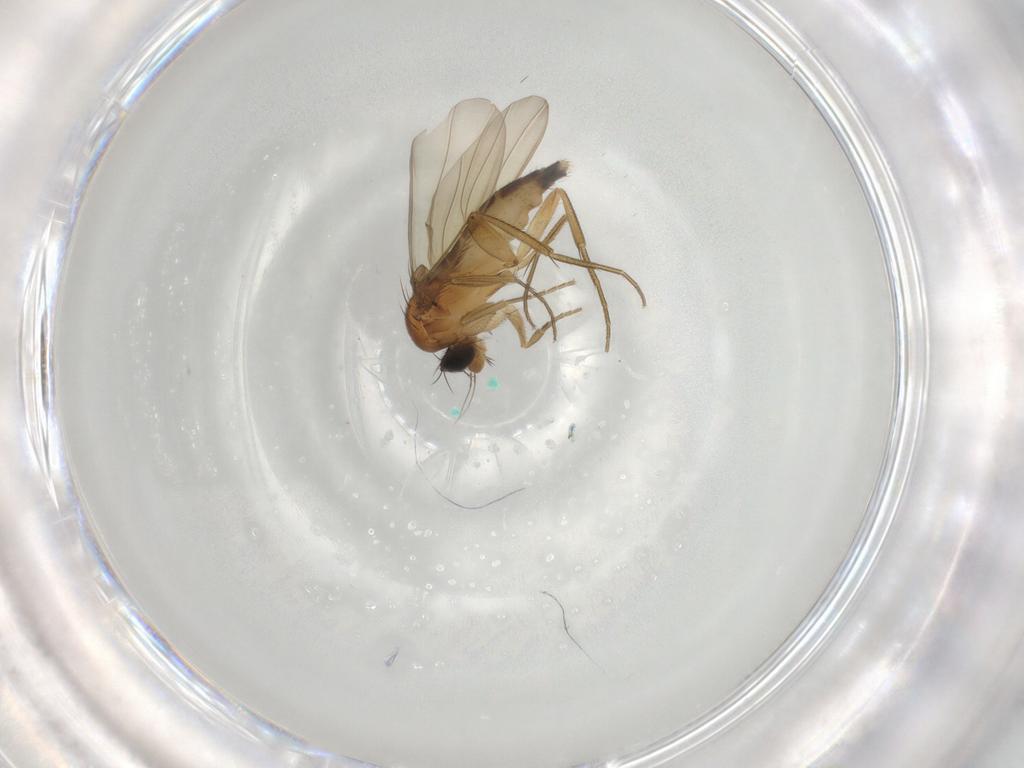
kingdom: Animalia
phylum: Arthropoda
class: Insecta
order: Diptera
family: Phoridae
